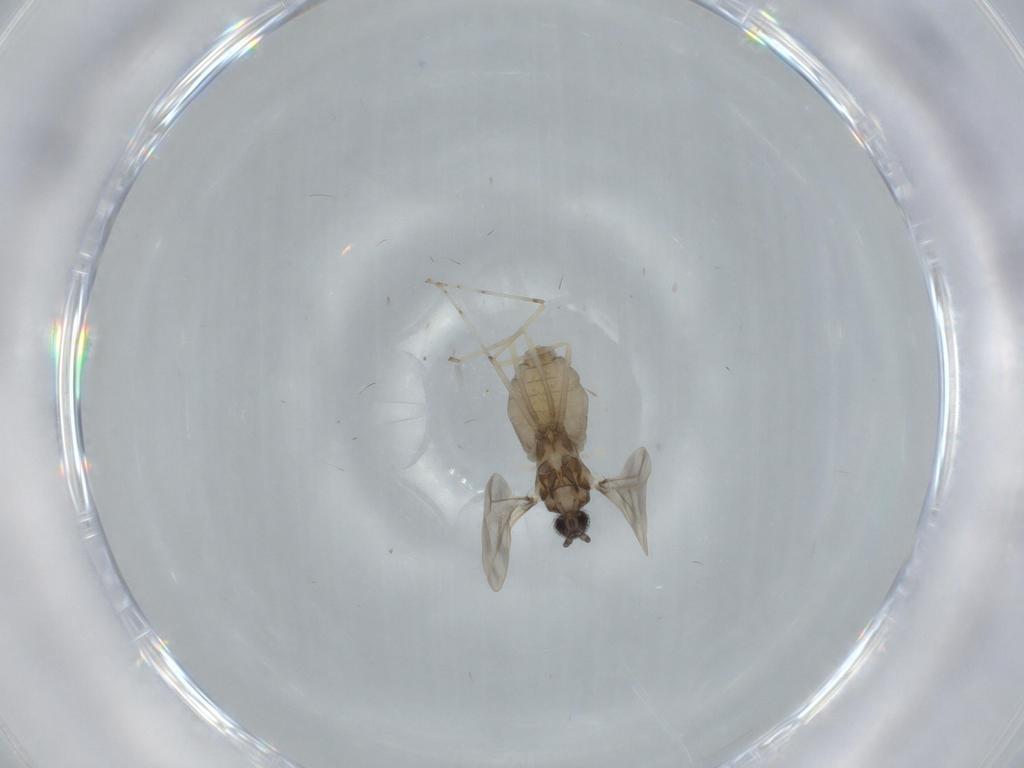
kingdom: Animalia
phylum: Arthropoda
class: Insecta
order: Diptera
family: Cecidomyiidae
